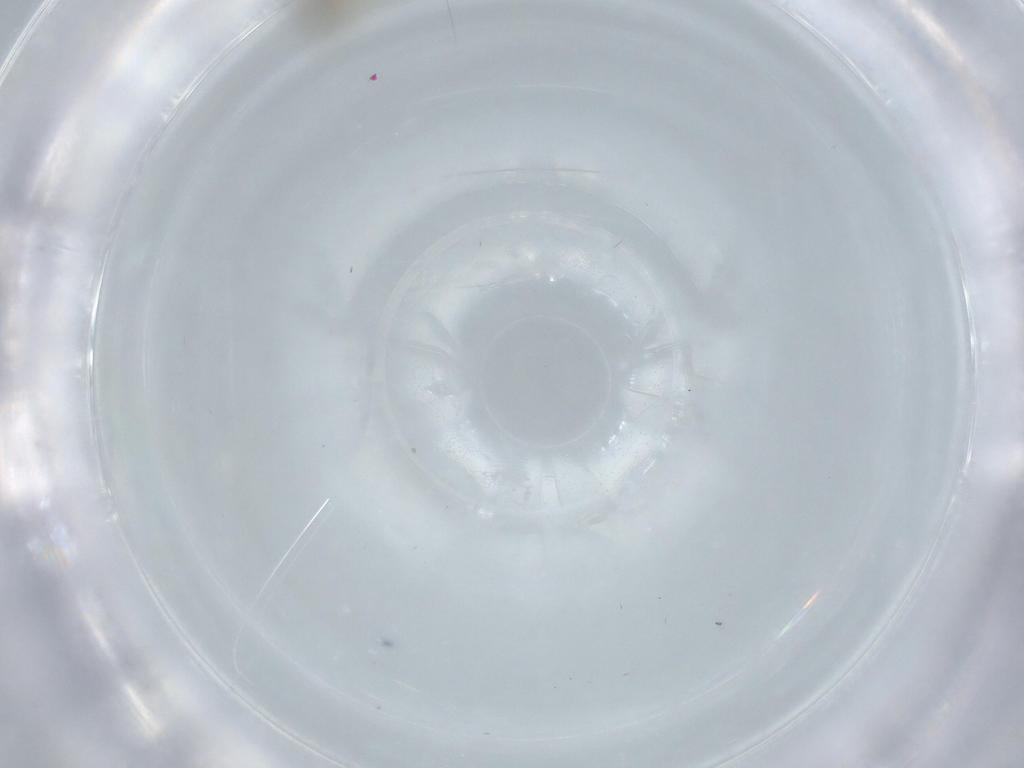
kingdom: Animalia
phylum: Arthropoda
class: Insecta
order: Diptera
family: Cecidomyiidae
